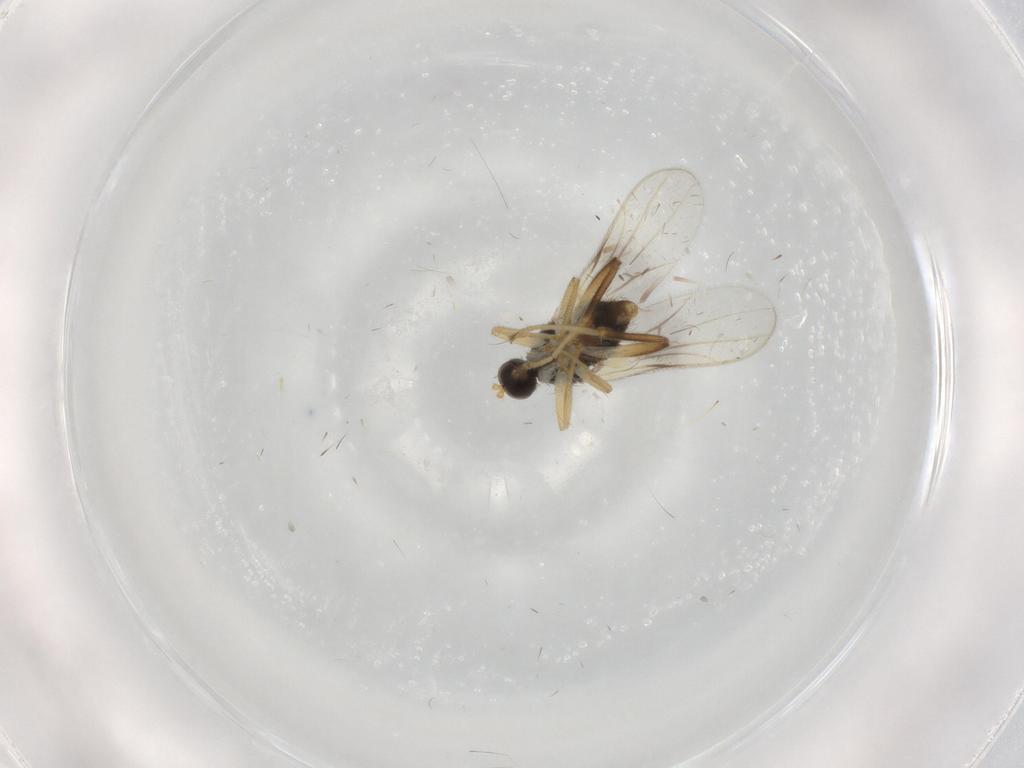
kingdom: Animalia
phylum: Arthropoda
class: Insecta
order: Diptera
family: Hybotidae
